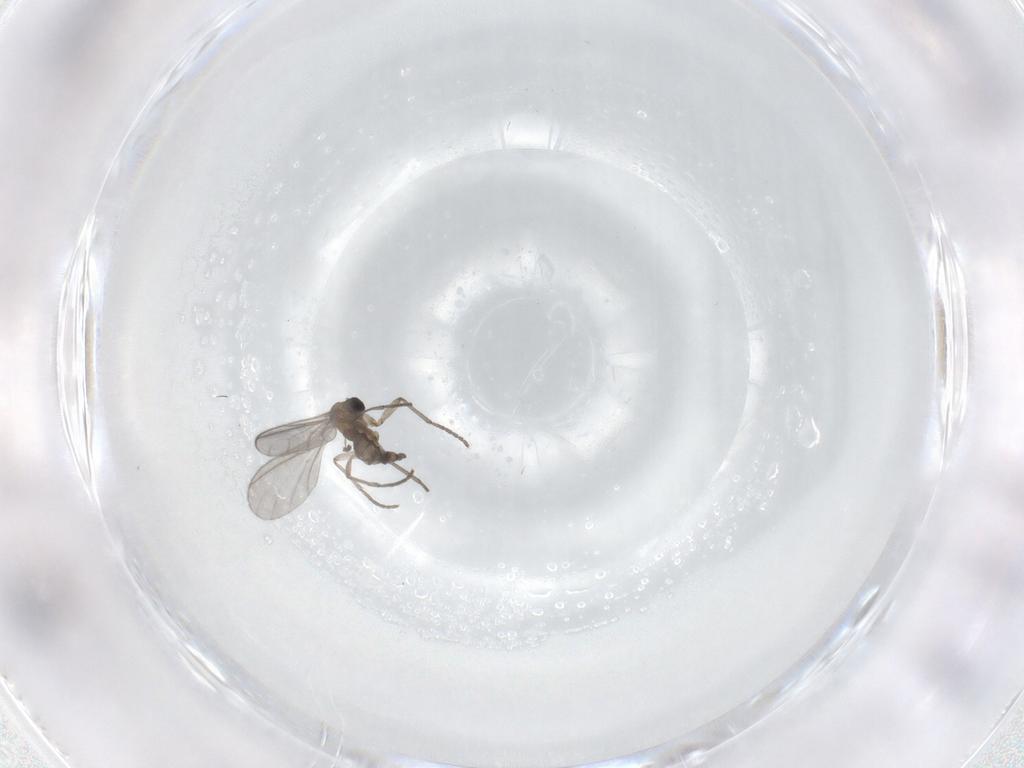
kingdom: Animalia
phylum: Arthropoda
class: Insecta
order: Diptera
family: Sciaridae
